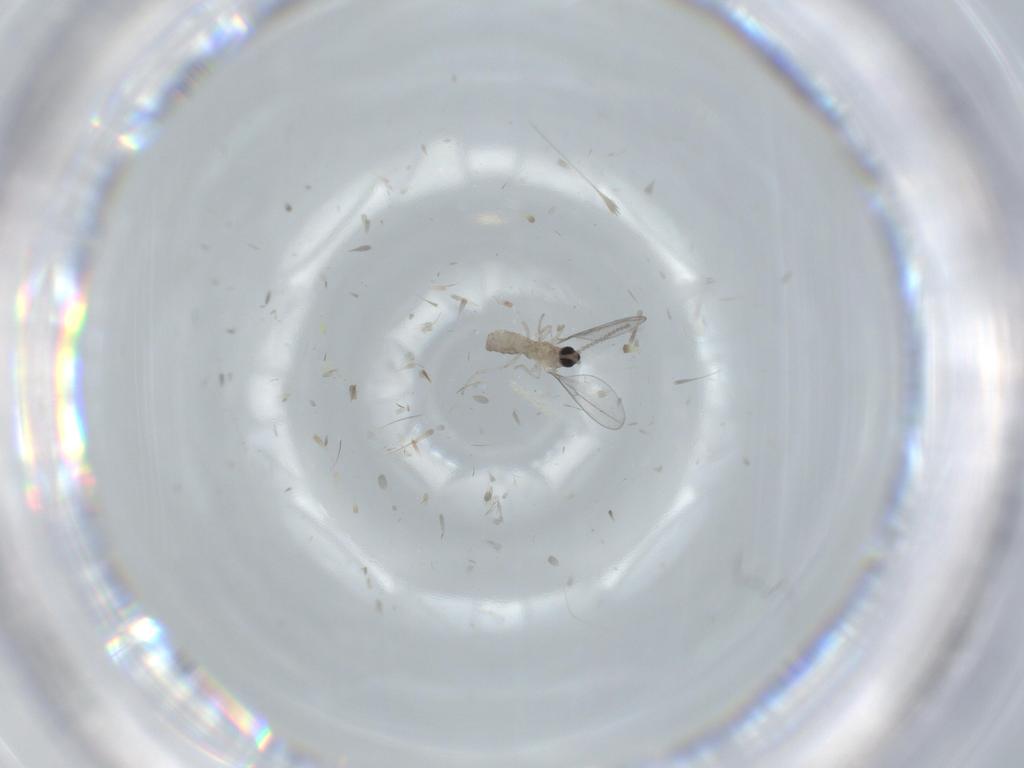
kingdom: Animalia
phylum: Arthropoda
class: Insecta
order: Diptera
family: Cecidomyiidae
